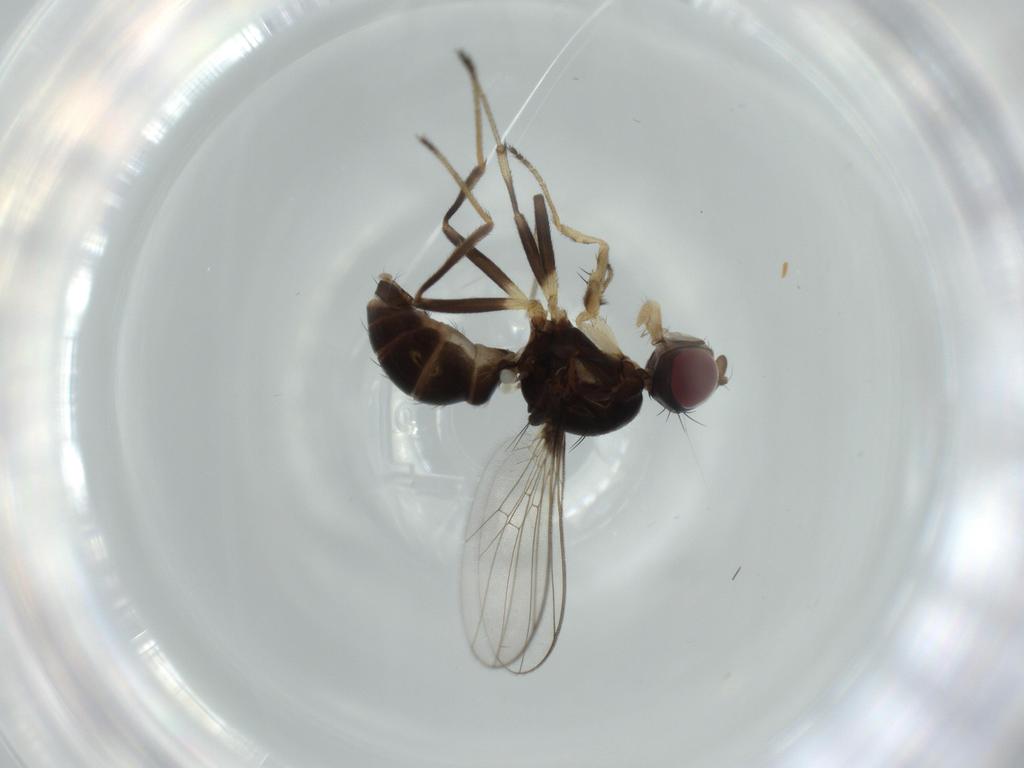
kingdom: Animalia
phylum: Arthropoda
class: Insecta
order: Diptera
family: Sepsidae
